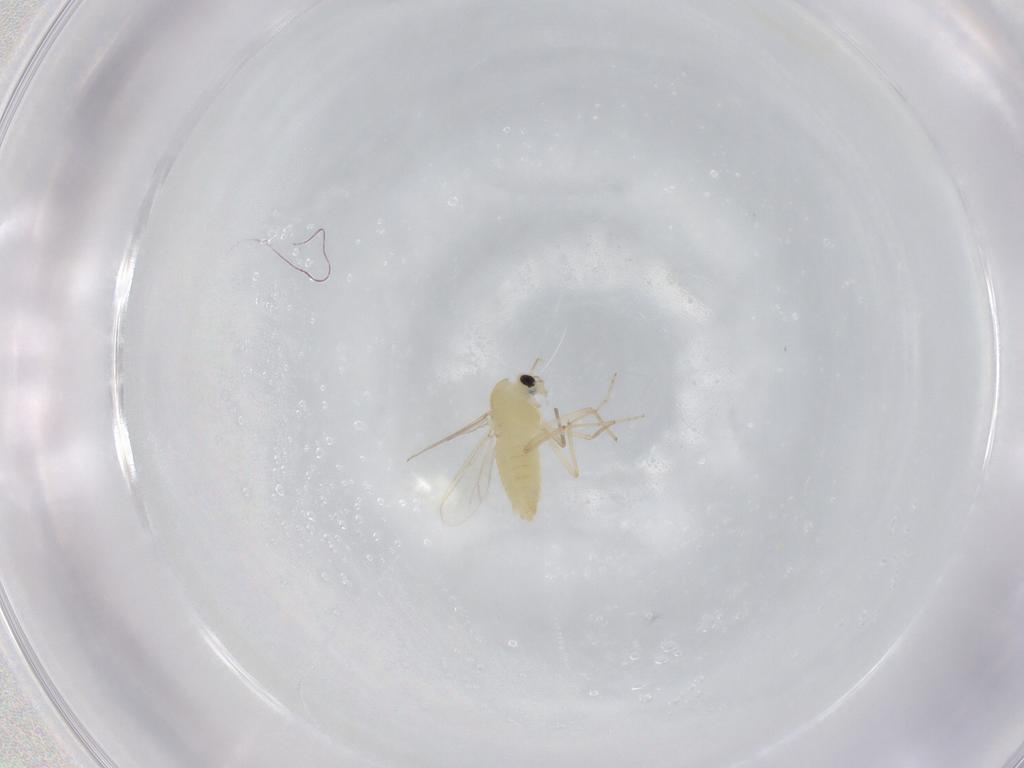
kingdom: Animalia
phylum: Arthropoda
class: Insecta
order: Diptera
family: Chironomidae
